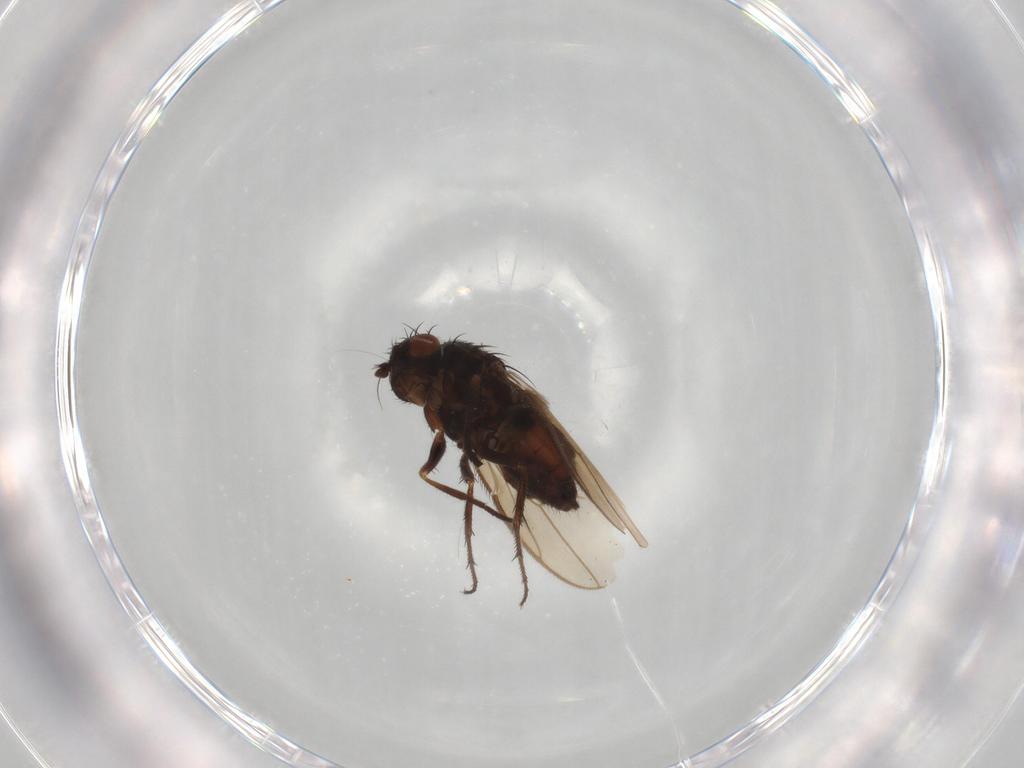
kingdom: Animalia
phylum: Arthropoda
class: Insecta
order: Diptera
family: Sphaeroceridae
